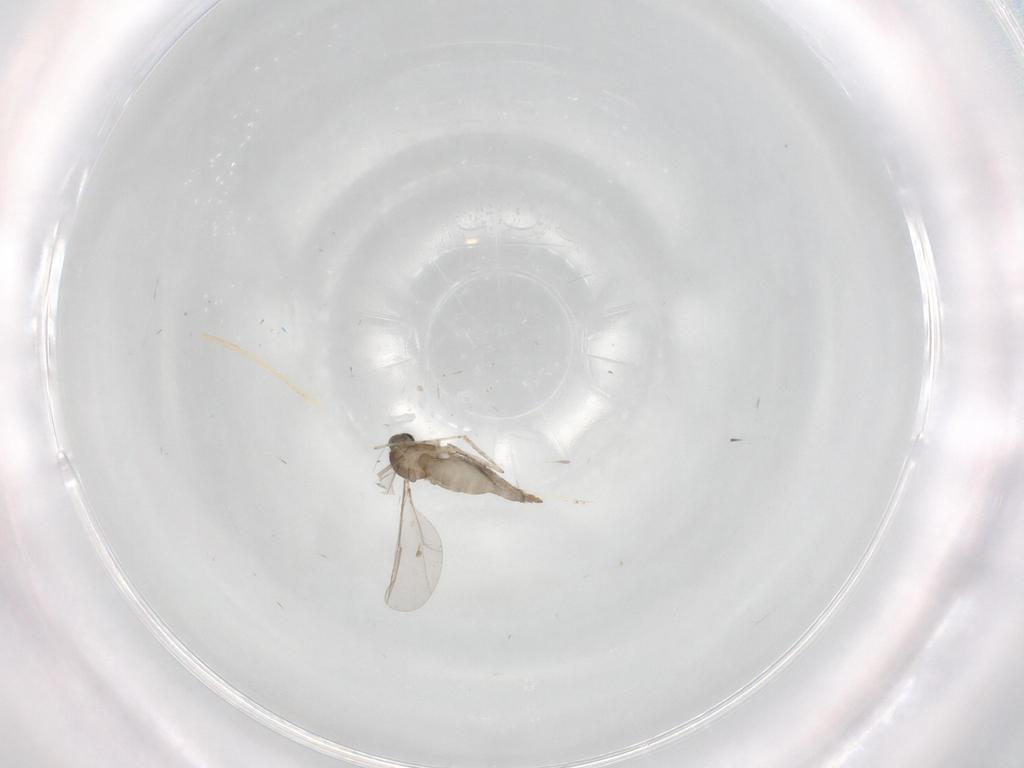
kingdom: Animalia
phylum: Arthropoda
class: Insecta
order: Diptera
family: Cecidomyiidae
